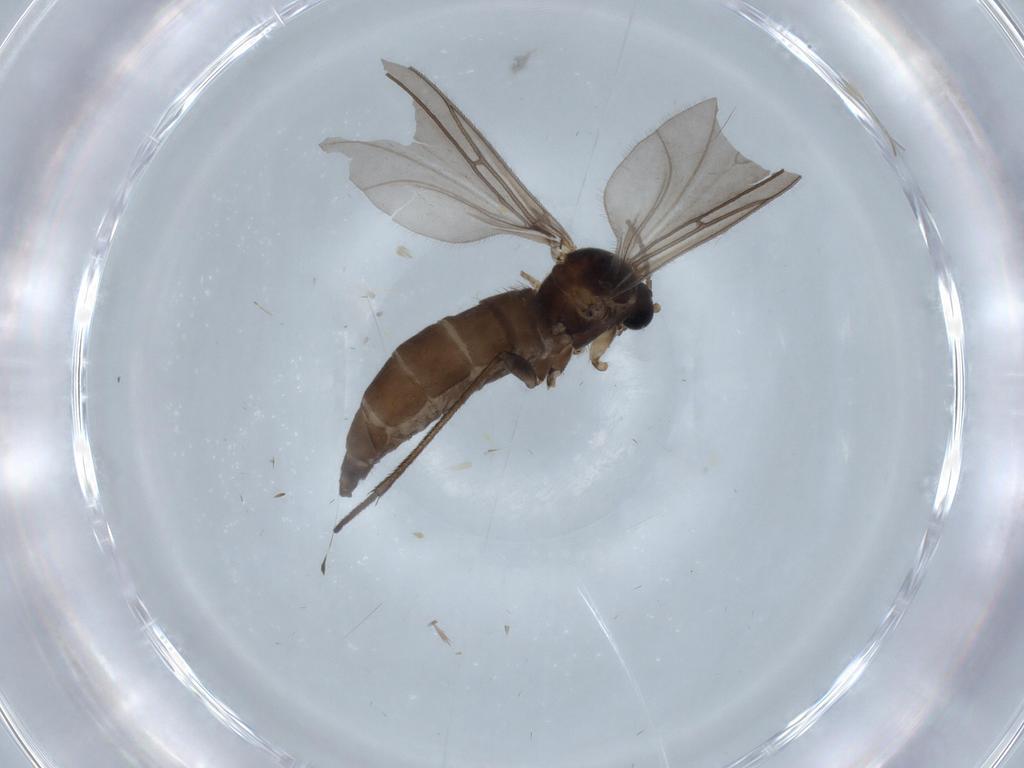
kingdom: Animalia
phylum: Arthropoda
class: Insecta
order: Diptera
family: Sciaridae
